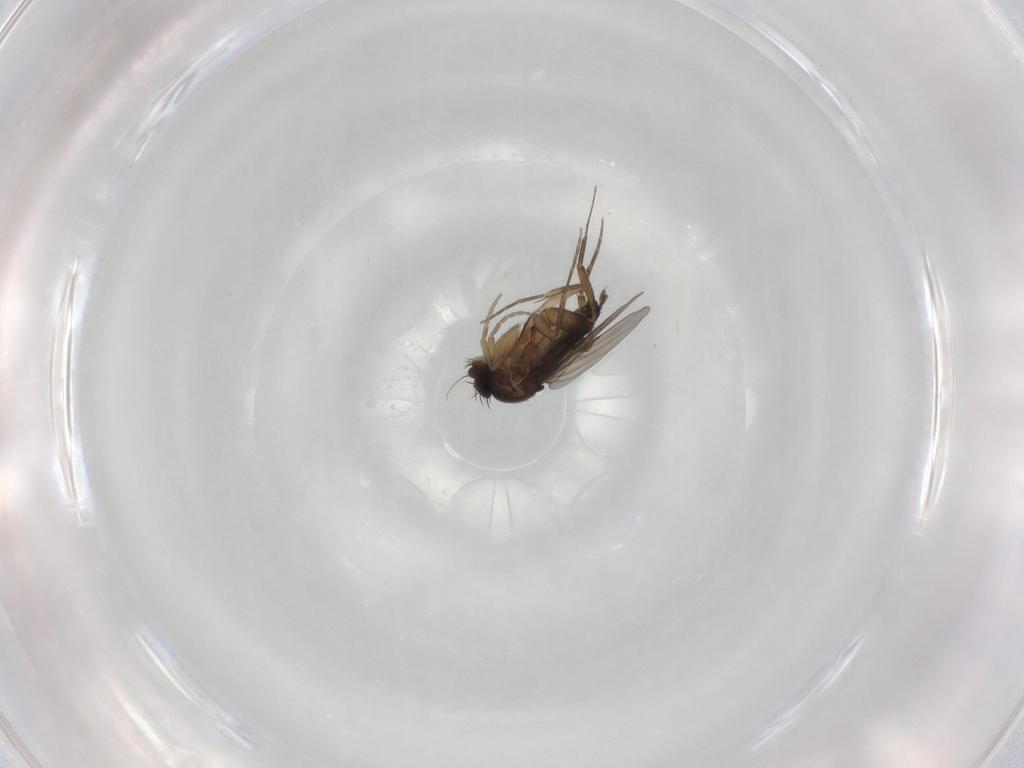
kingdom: Animalia
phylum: Arthropoda
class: Insecta
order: Diptera
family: Phoridae
